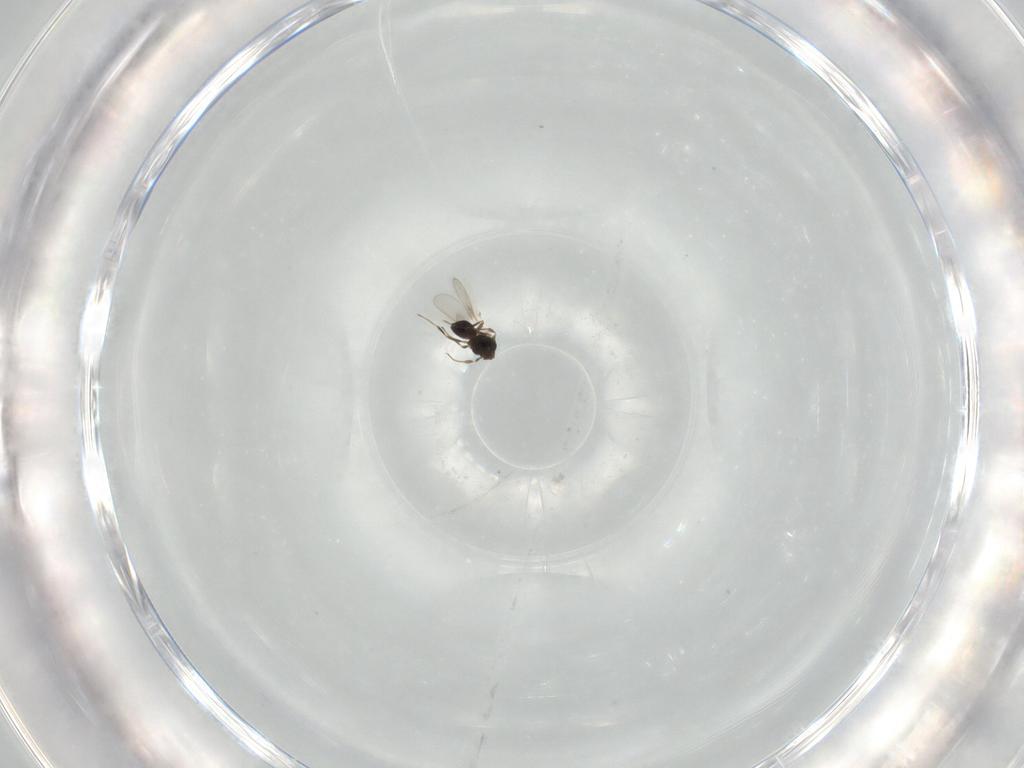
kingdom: Animalia
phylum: Arthropoda
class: Insecta
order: Hymenoptera
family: Scelionidae
